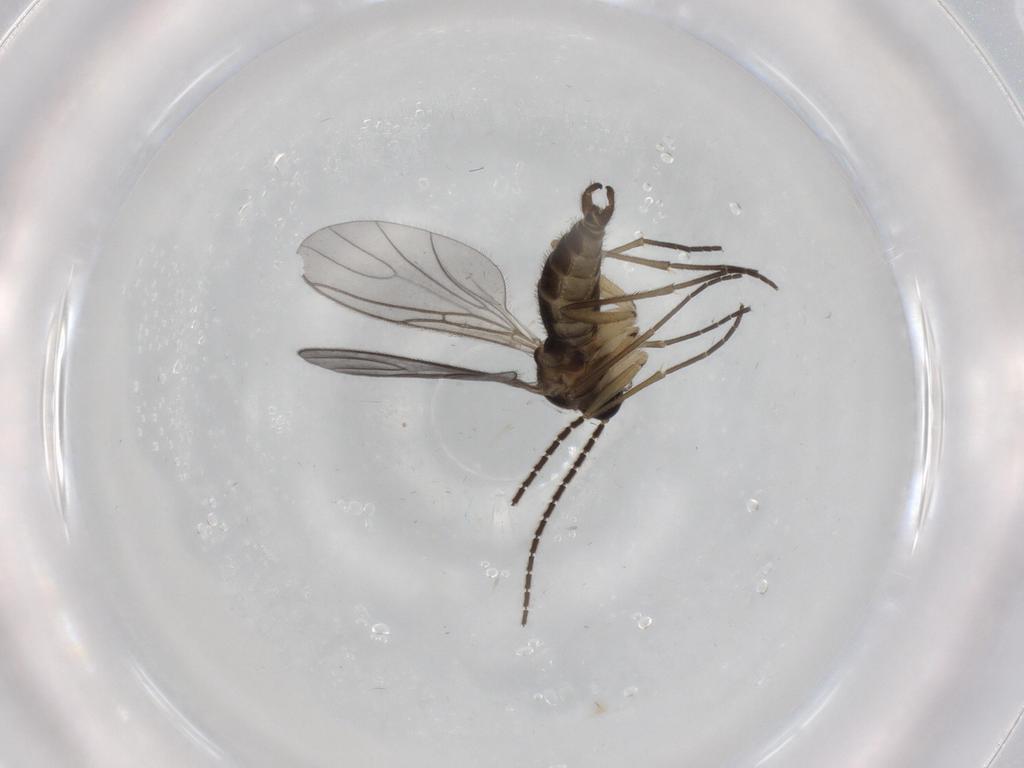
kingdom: Animalia
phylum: Arthropoda
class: Insecta
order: Diptera
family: Sciaridae
